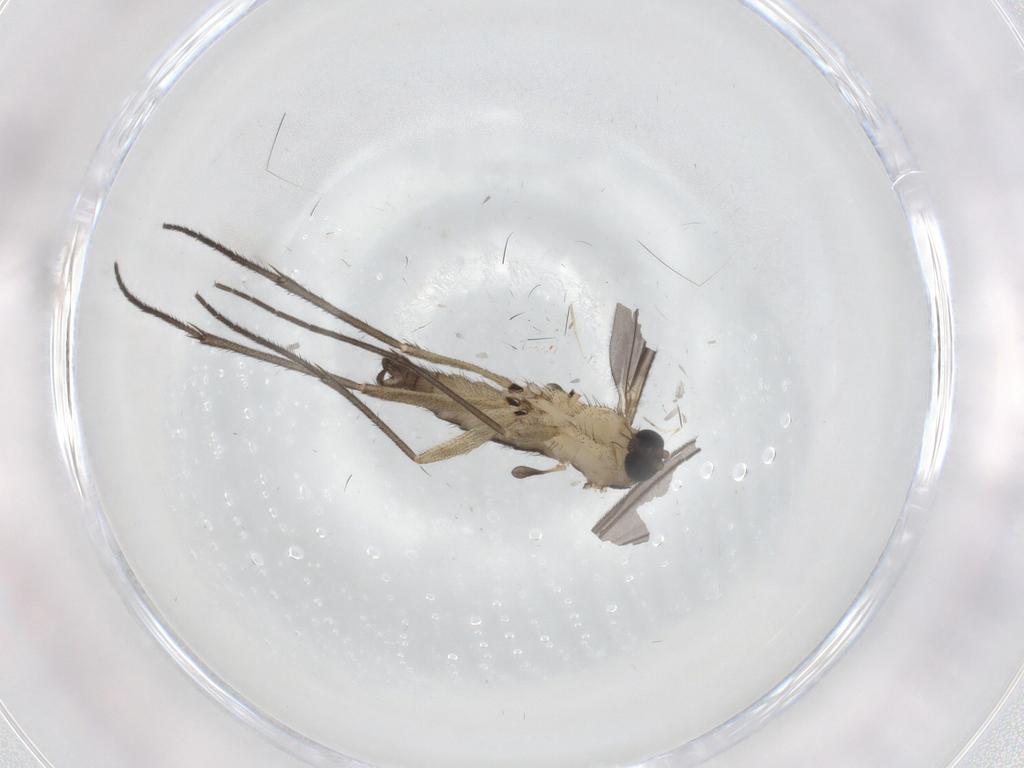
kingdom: Animalia
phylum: Arthropoda
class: Insecta
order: Diptera
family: Sciaridae
